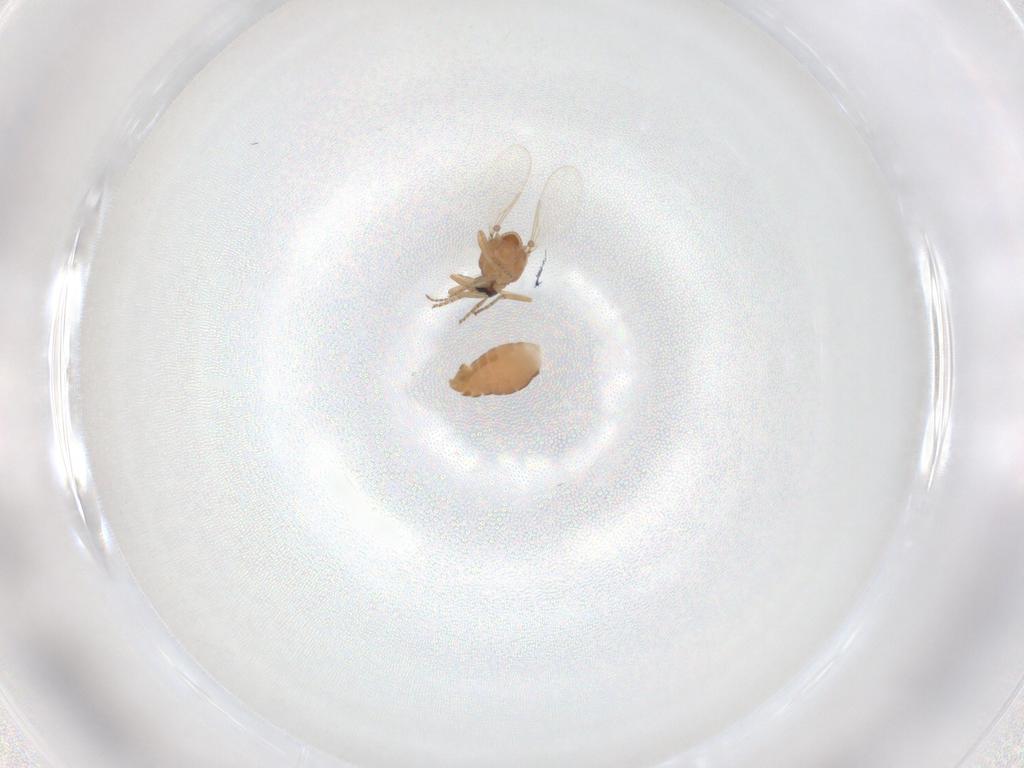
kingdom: Animalia
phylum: Arthropoda
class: Insecta
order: Diptera
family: Ceratopogonidae
